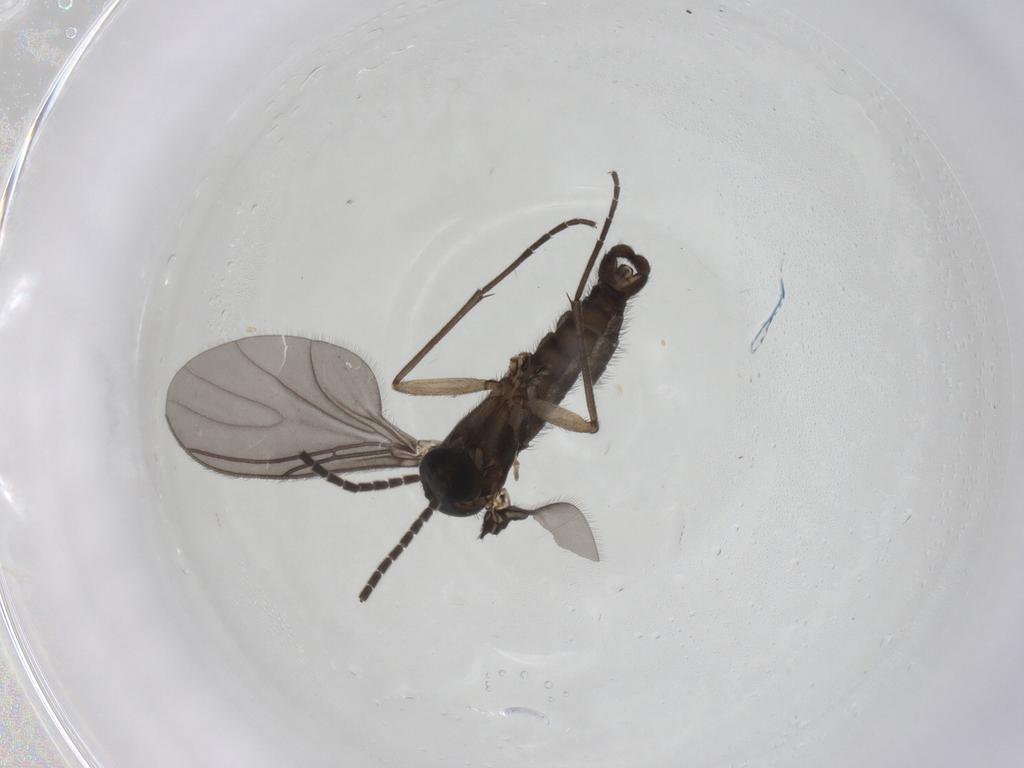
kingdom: Animalia
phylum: Arthropoda
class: Insecta
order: Diptera
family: Sciaridae
